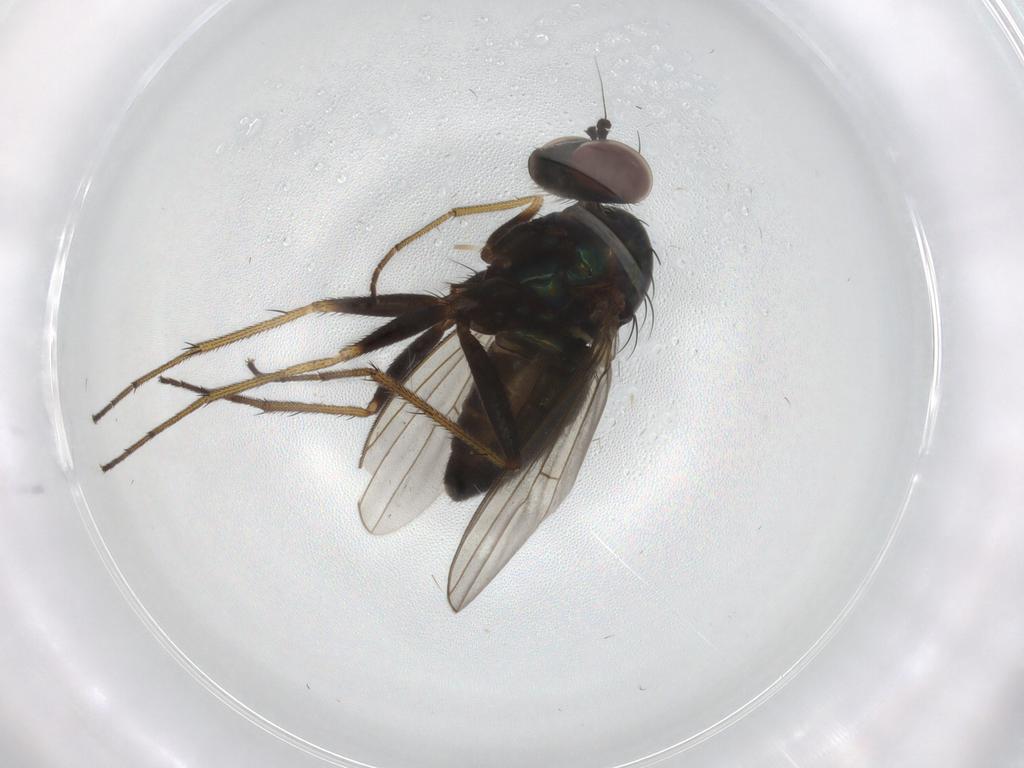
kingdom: Animalia
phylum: Arthropoda
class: Insecta
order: Diptera
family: Dolichopodidae
